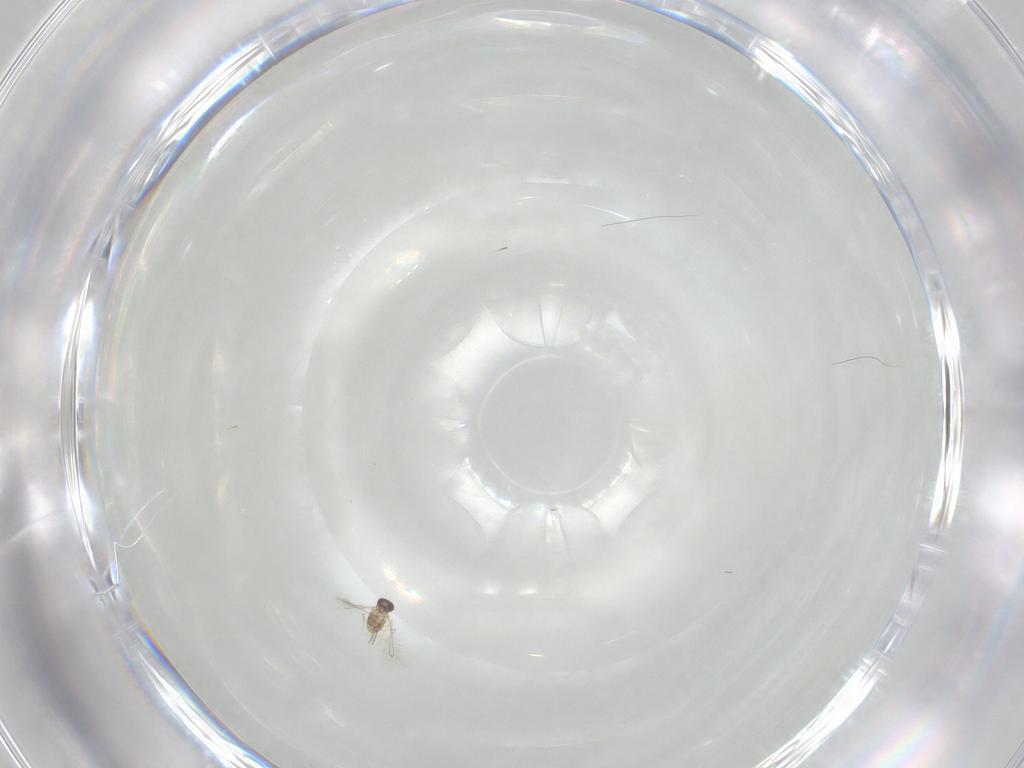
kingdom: Animalia
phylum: Arthropoda
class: Insecta
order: Hymenoptera
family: Mymaridae
